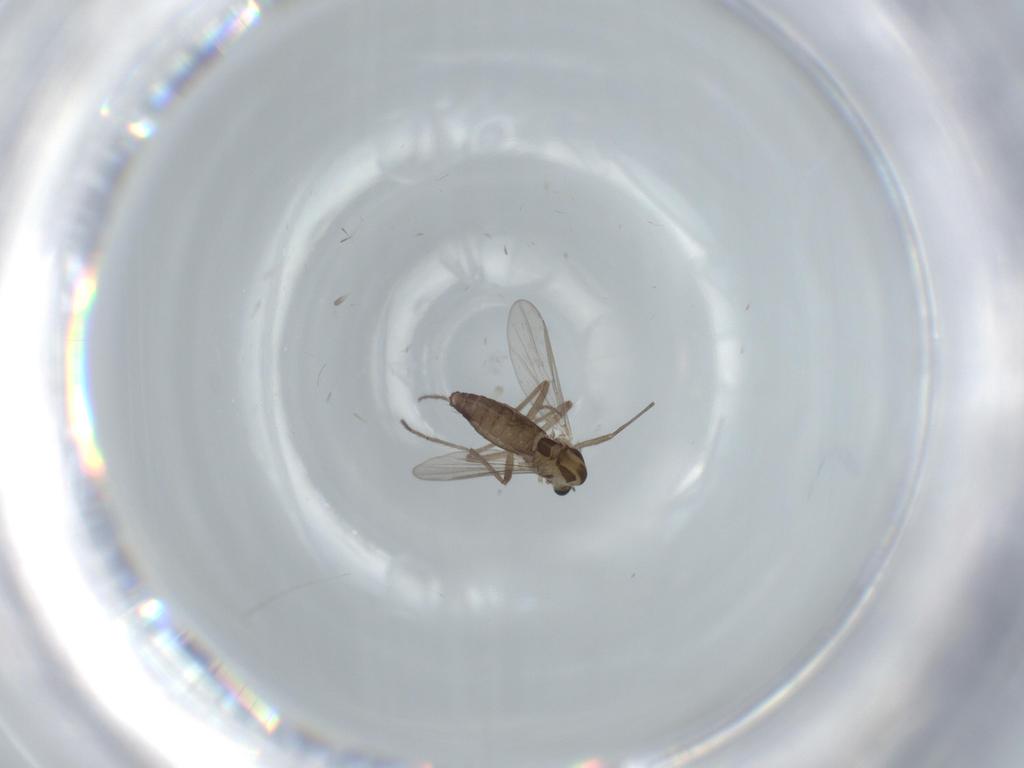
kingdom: Animalia
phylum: Arthropoda
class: Insecta
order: Diptera
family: Chironomidae
